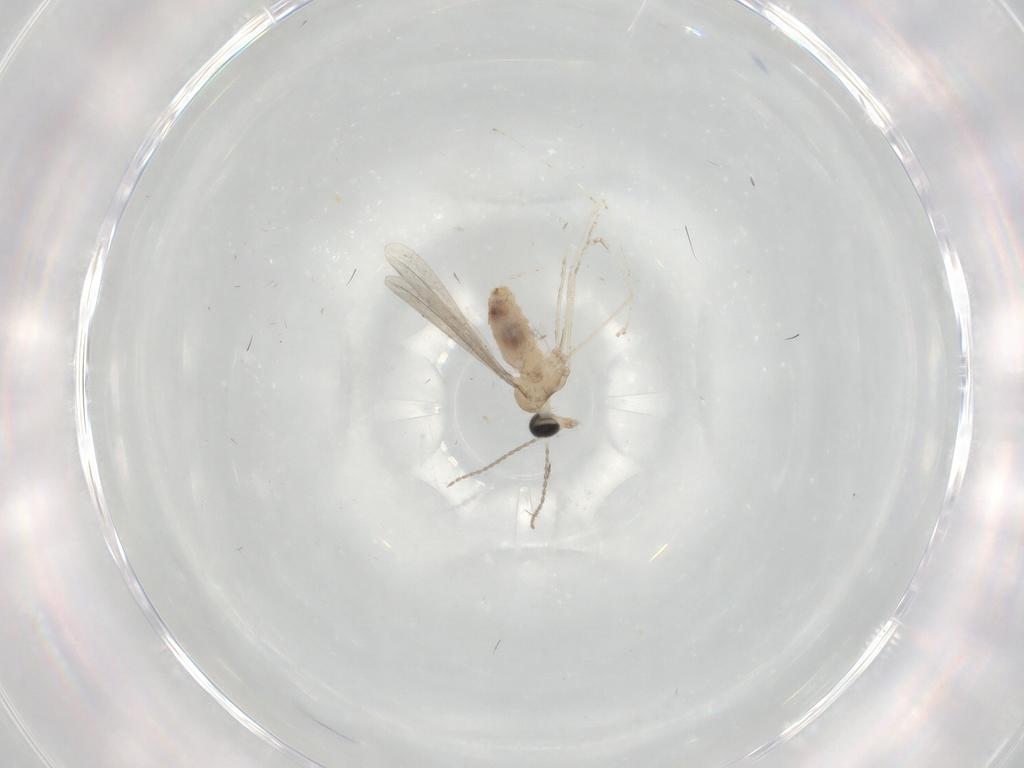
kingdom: Animalia
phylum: Arthropoda
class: Insecta
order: Diptera
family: Chironomidae
